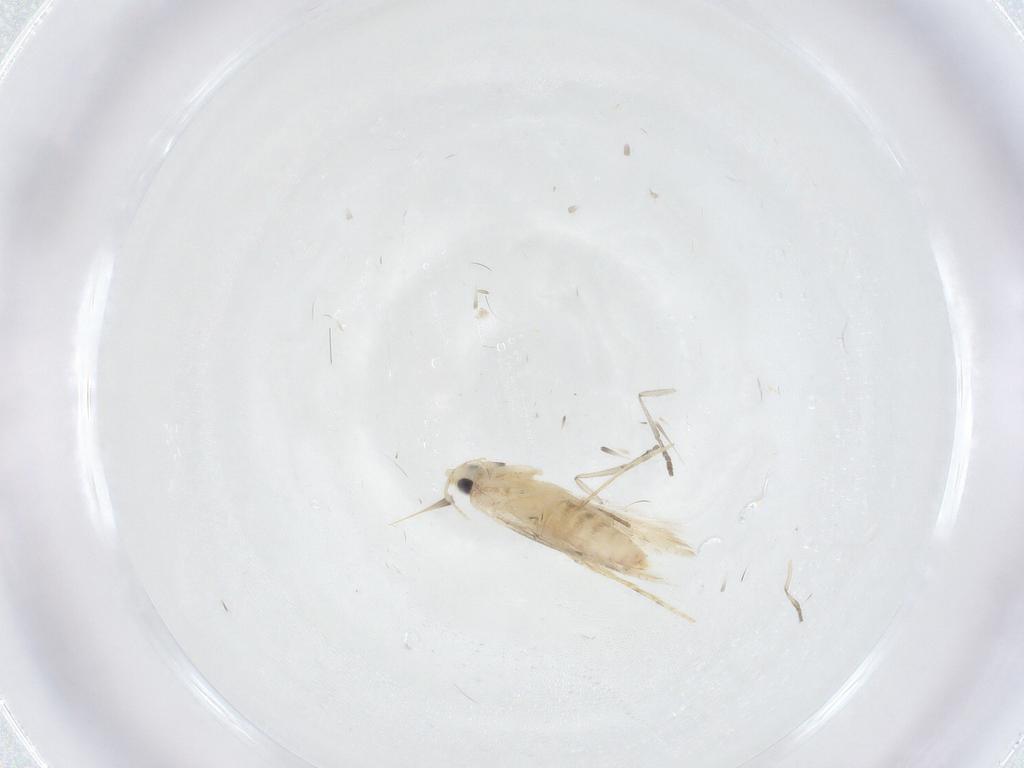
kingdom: Animalia
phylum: Arthropoda
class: Insecta
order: Lepidoptera
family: Tineidae
